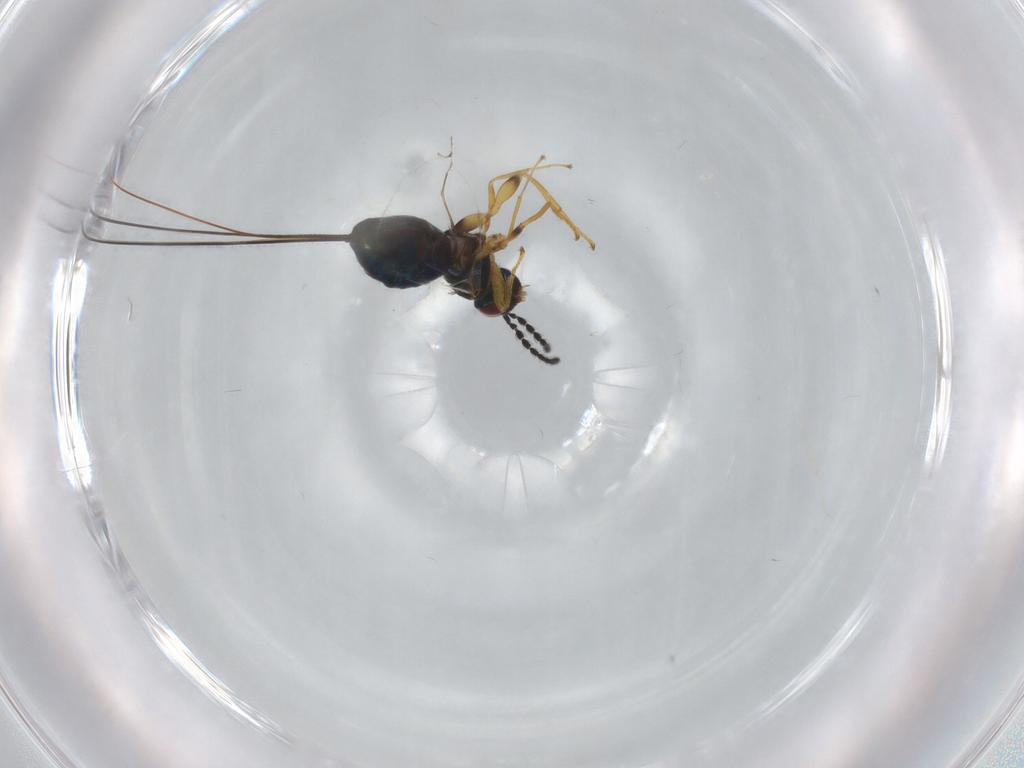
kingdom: Animalia
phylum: Arthropoda
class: Insecta
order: Hymenoptera
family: Pteromalidae
